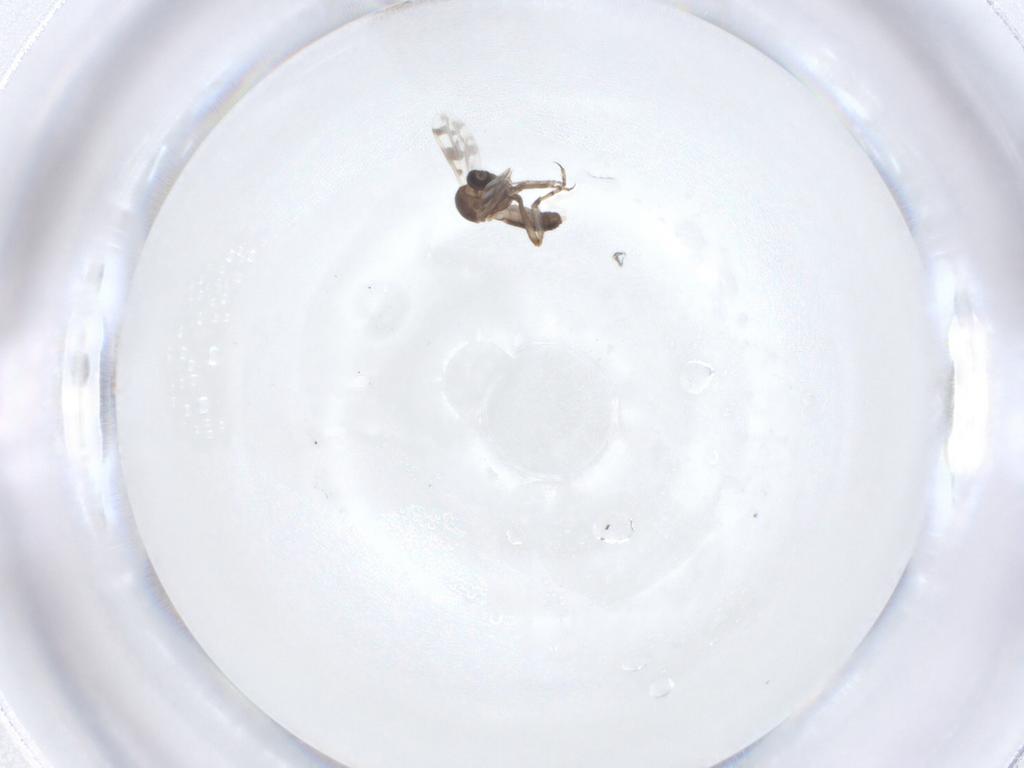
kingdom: Animalia
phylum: Arthropoda
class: Insecta
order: Diptera
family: Ceratopogonidae
